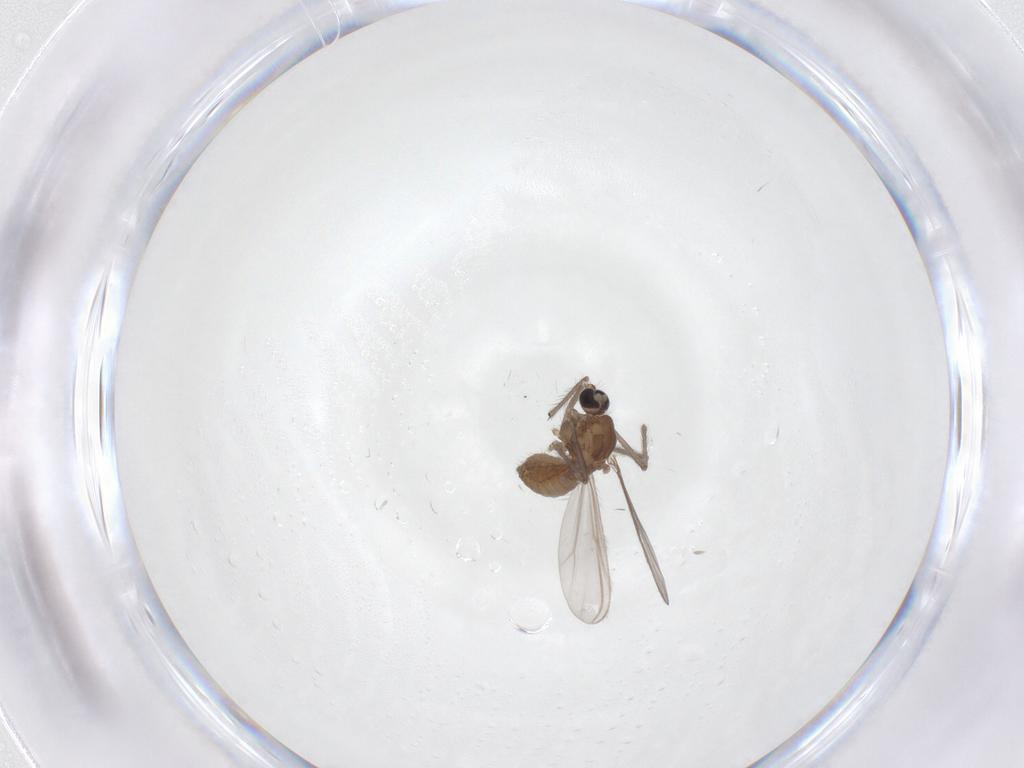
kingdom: Animalia
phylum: Arthropoda
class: Insecta
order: Diptera
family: Chironomidae
